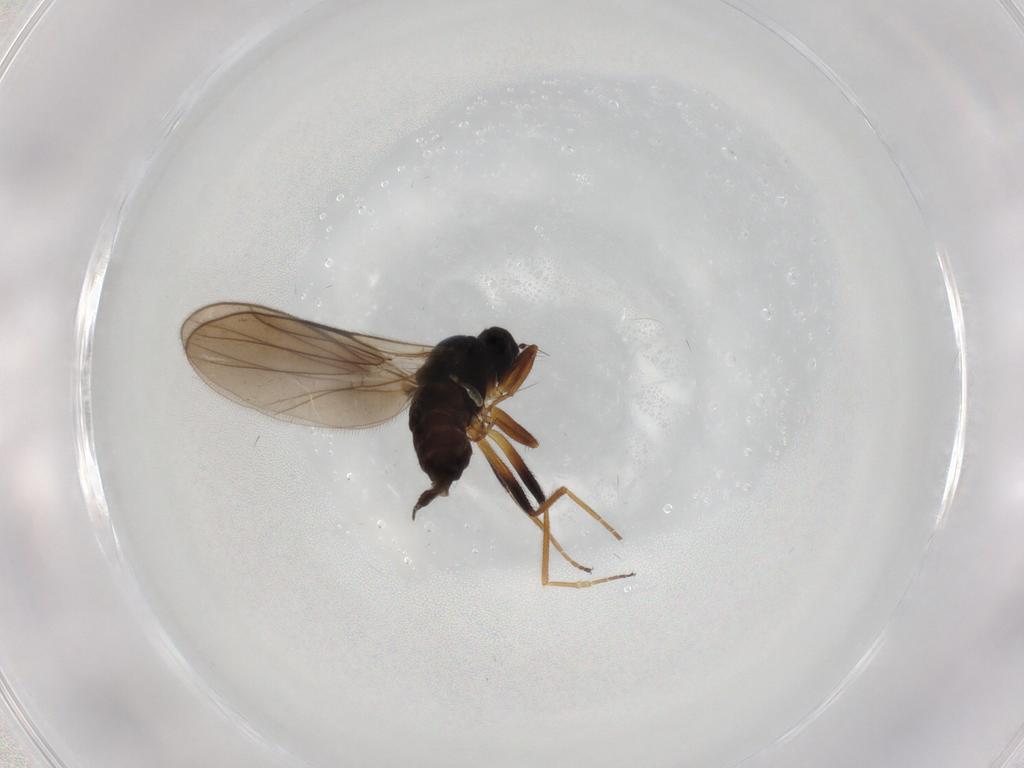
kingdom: Animalia
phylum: Arthropoda
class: Insecta
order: Diptera
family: Hybotidae
